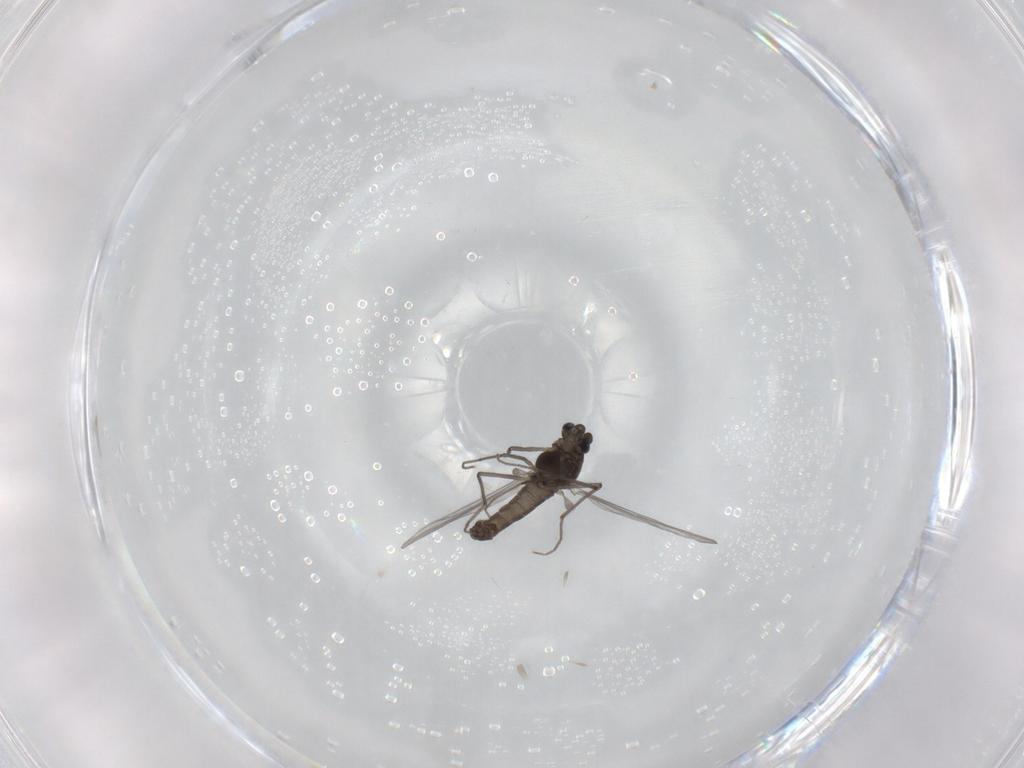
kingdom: Animalia
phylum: Arthropoda
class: Insecta
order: Diptera
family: Chironomidae
